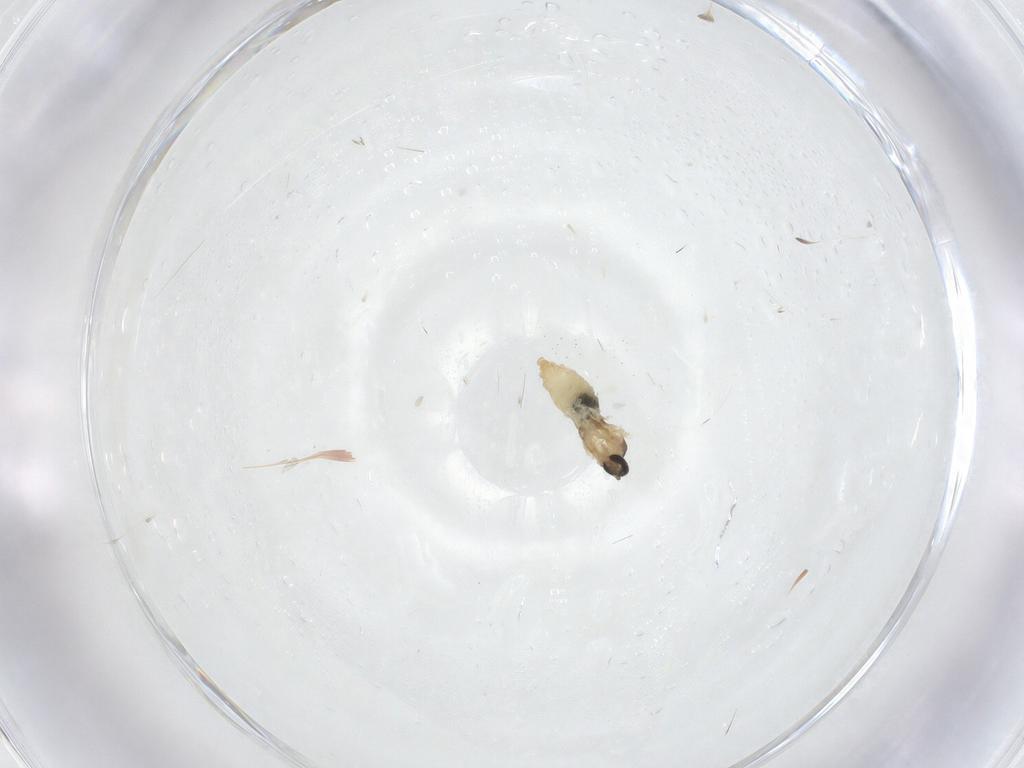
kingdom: Animalia
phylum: Arthropoda
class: Insecta
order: Diptera
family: Cecidomyiidae
